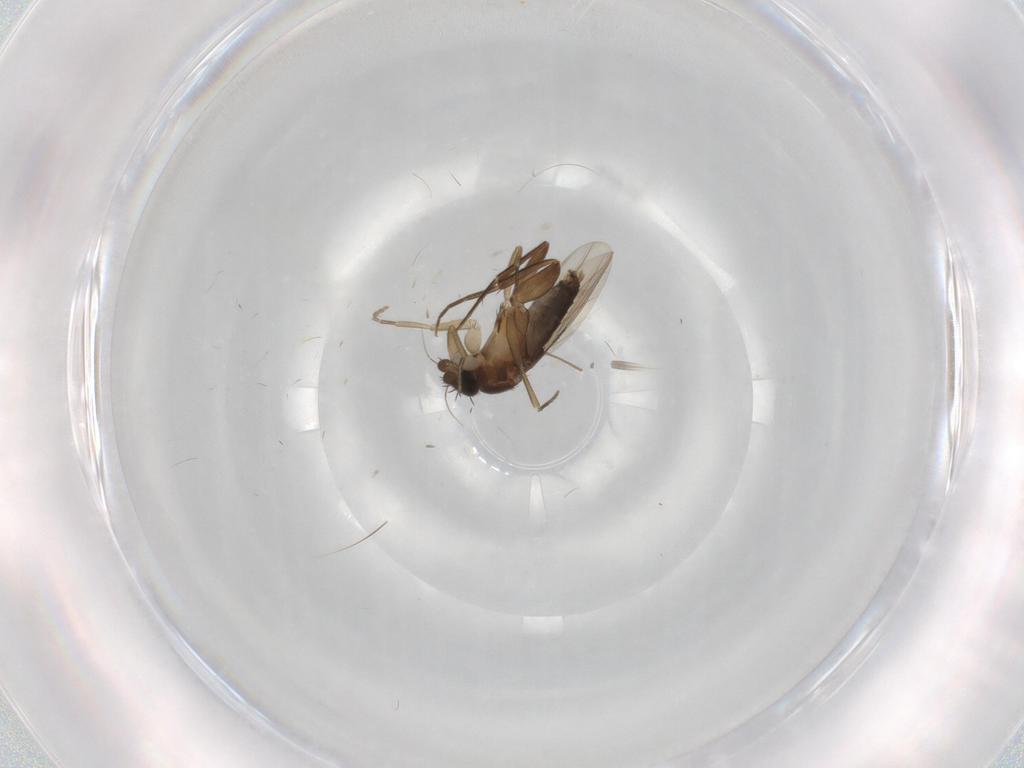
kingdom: Animalia
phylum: Arthropoda
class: Insecta
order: Diptera
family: Phoridae
